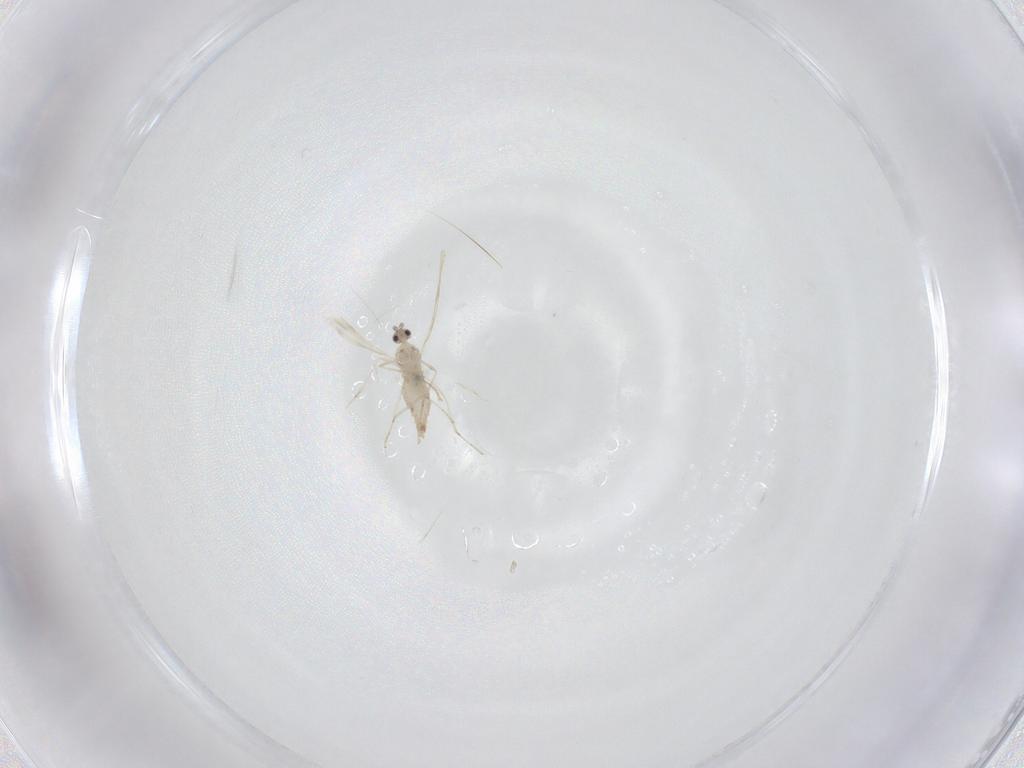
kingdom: Animalia
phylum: Arthropoda
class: Insecta
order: Diptera
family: Cecidomyiidae
